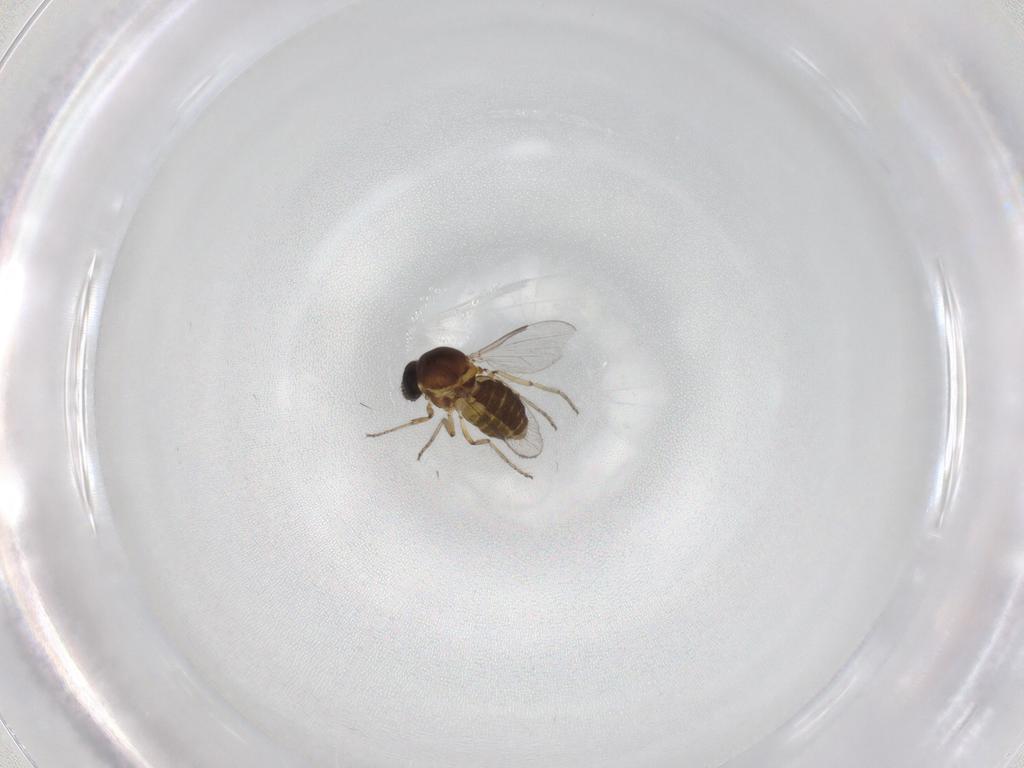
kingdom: Animalia
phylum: Arthropoda
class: Insecta
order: Diptera
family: Ceratopogonidae
